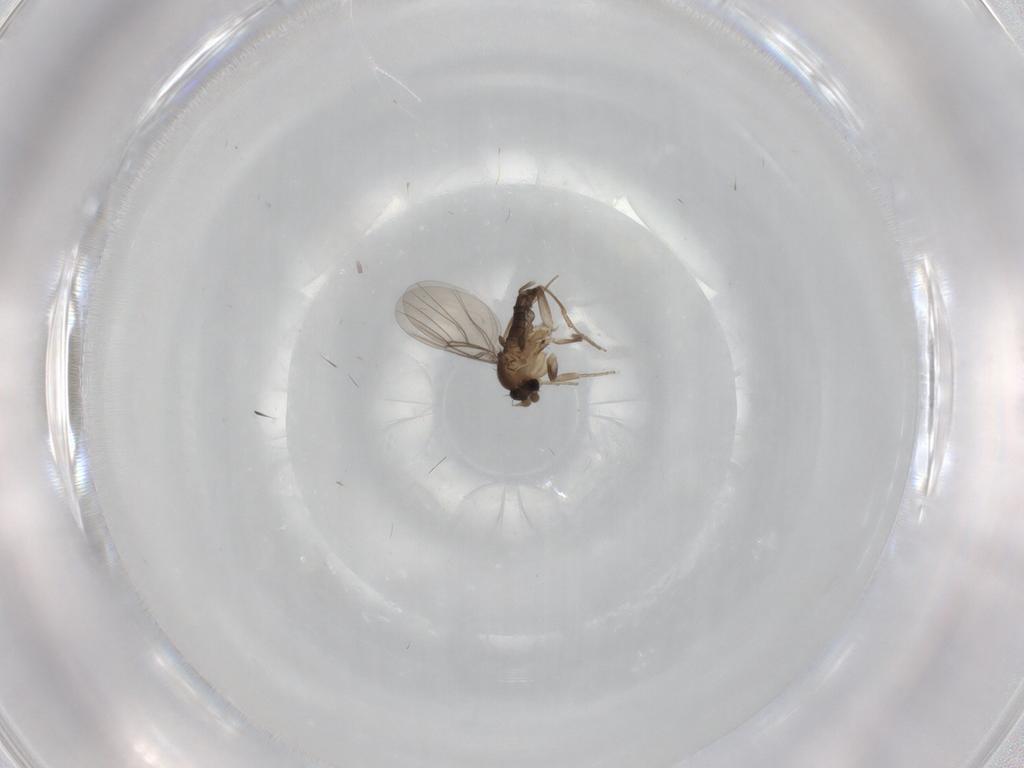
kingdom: Animalia
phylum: Arthropoda
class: Insecta
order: Diptera
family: Phoridae
